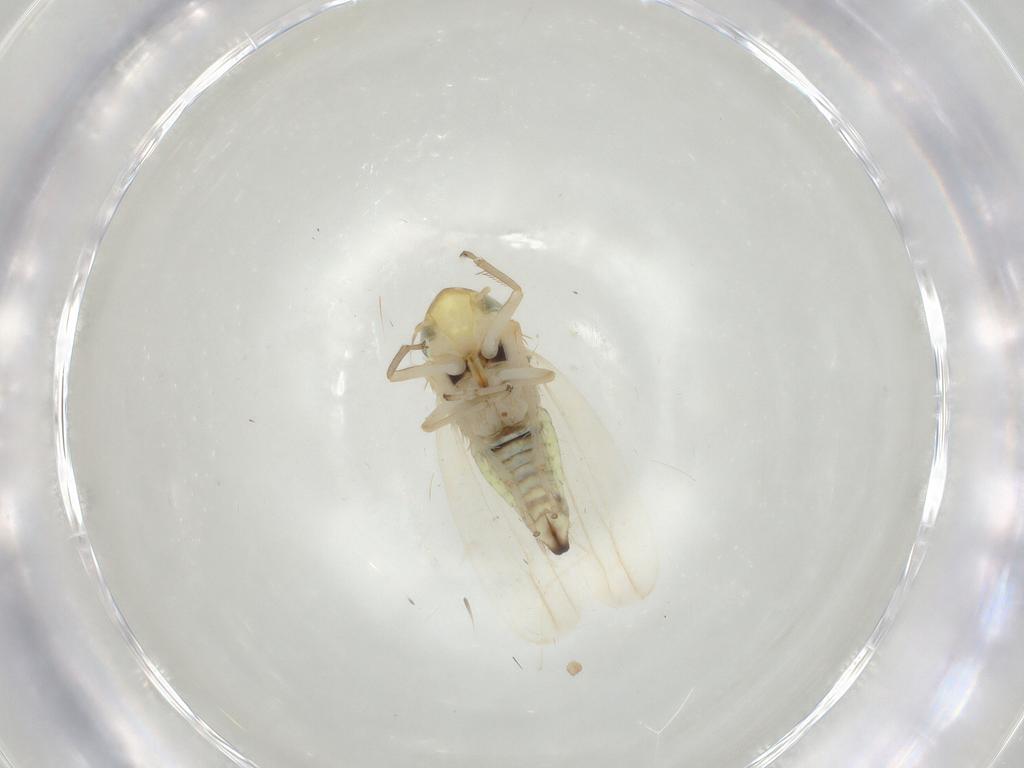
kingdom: Animalia
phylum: Arthropoda
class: Insecta
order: Hemiptera
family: Cicadellidae
